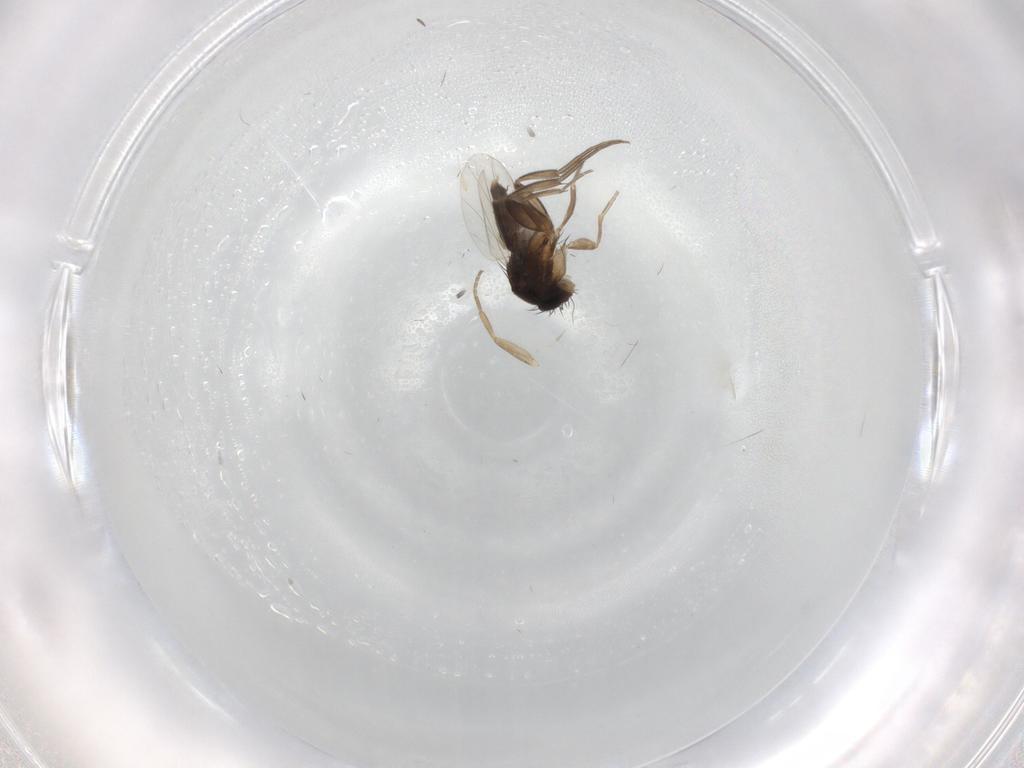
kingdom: Animalia
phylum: Arthropoda
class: Insecta
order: Diptera
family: Phoridae
